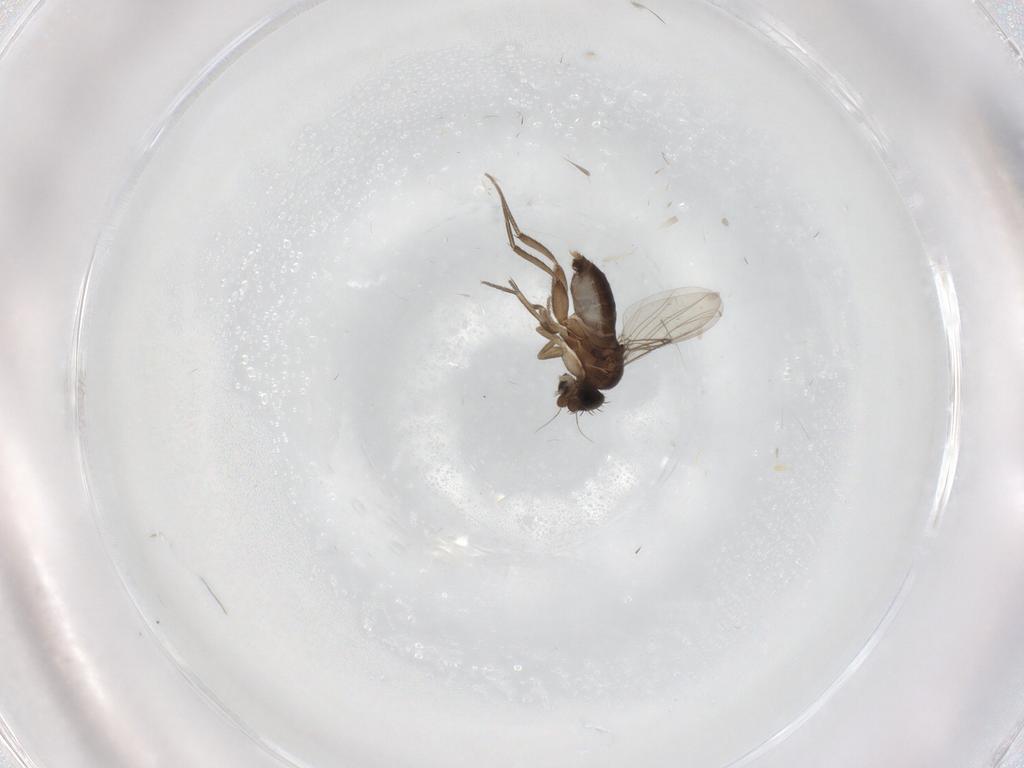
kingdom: Animalia
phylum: Arthropoda
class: Insecta
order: Diptera
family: Phoridae
